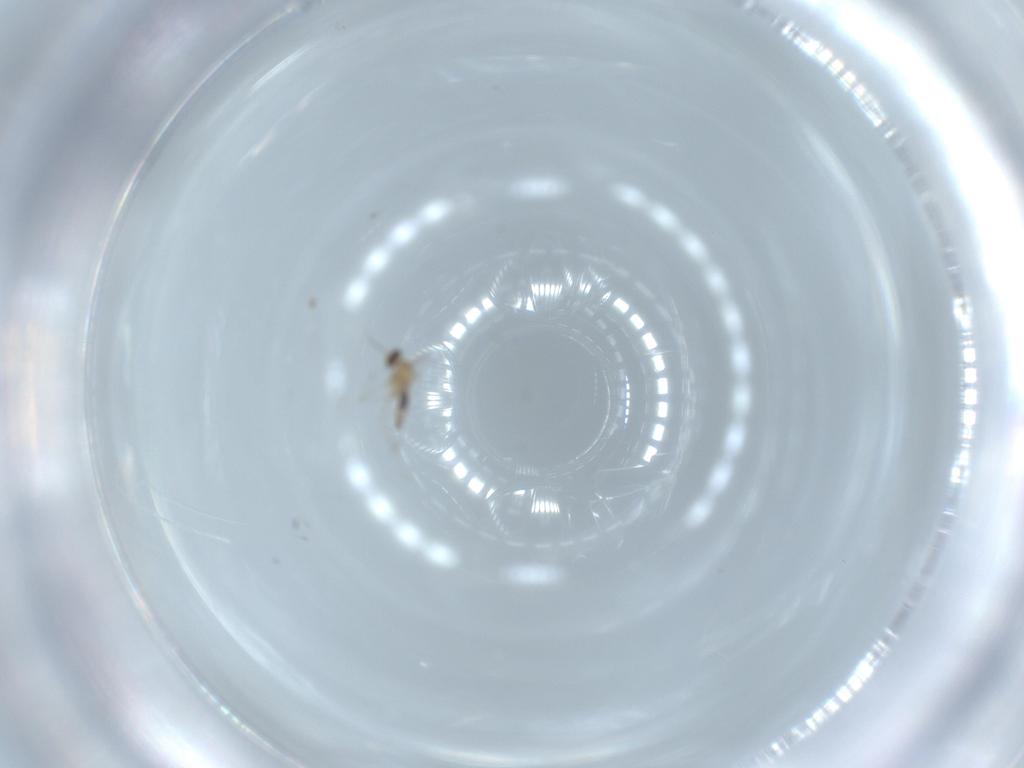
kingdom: Animalia
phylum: Arthropoda
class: Insecta
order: Diptera
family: Cecidomyiidae
